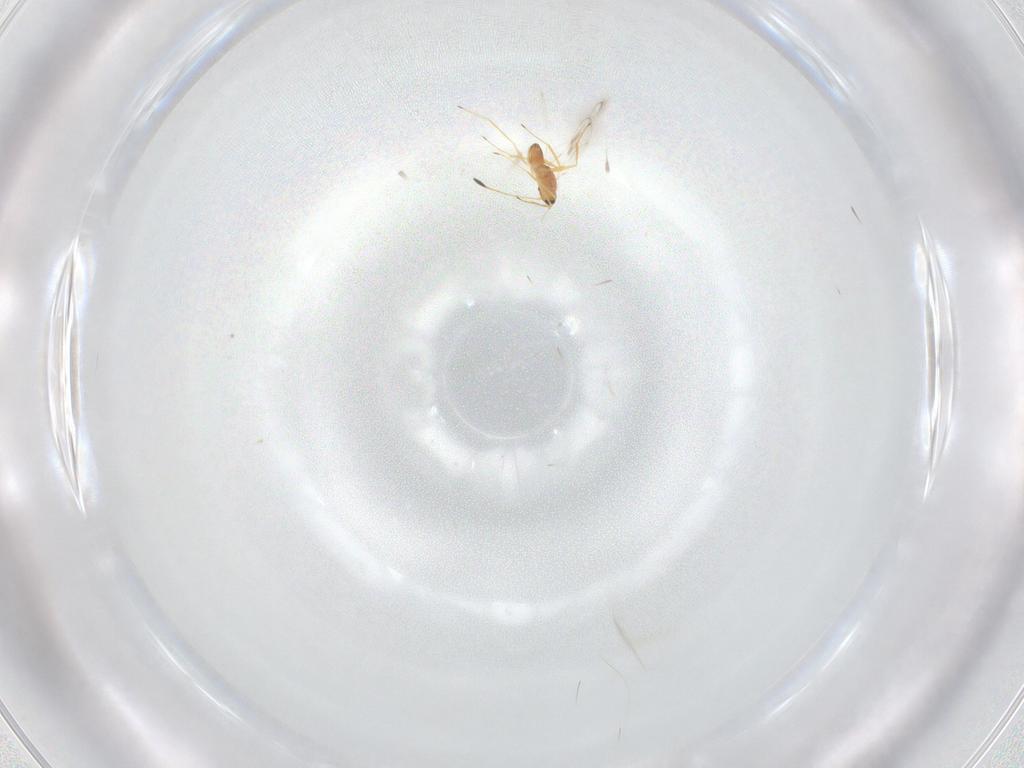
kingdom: Animalia
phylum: Arthropoda
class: Insecta
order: Hymenoptera
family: Mymaridae
